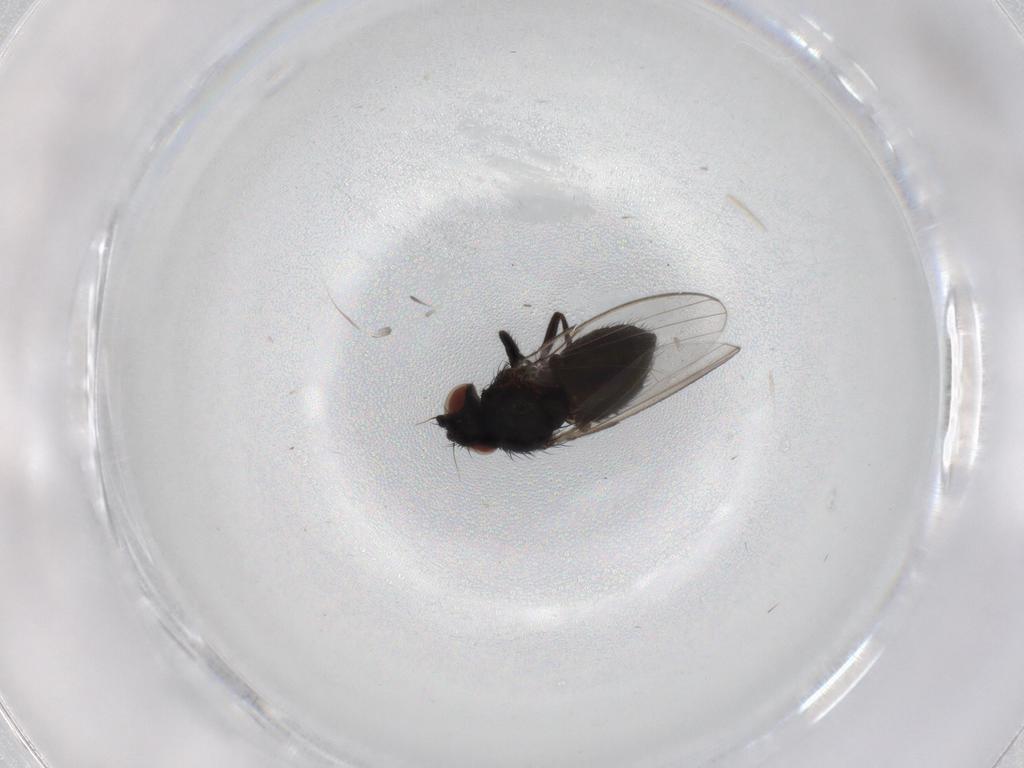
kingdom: Animalia
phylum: Arthropoda
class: Insecta
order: Diptera
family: Milichiidae
